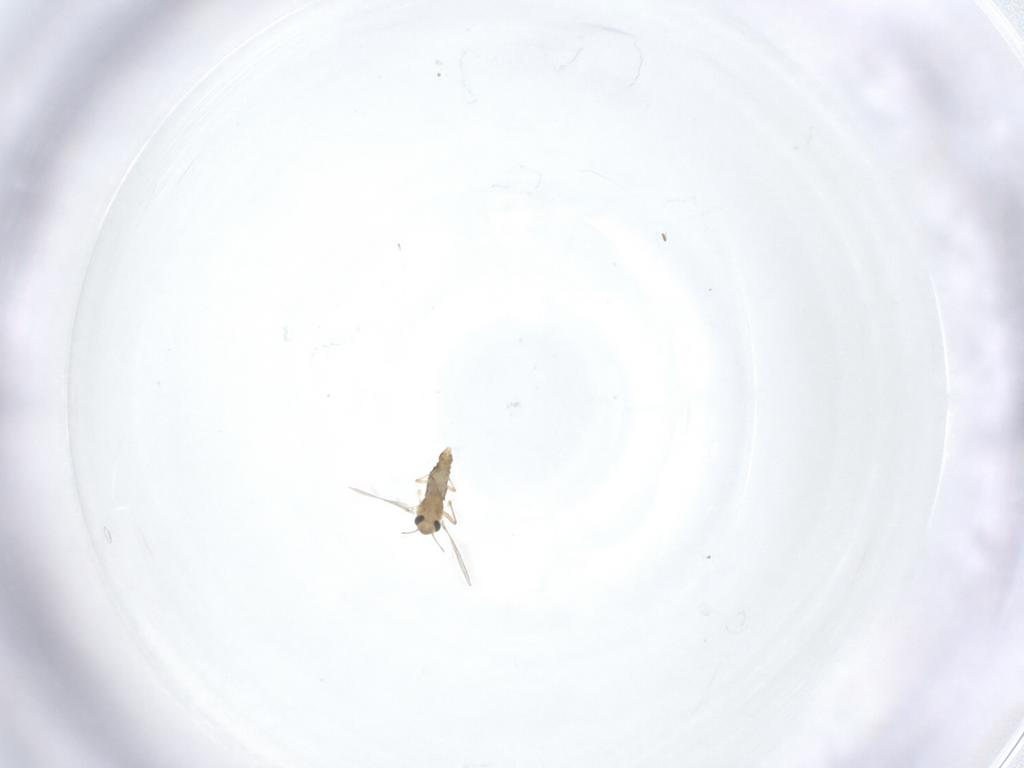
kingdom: Animalia
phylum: Arthropoda
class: Insecta
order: Diptera
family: Chironomidae
